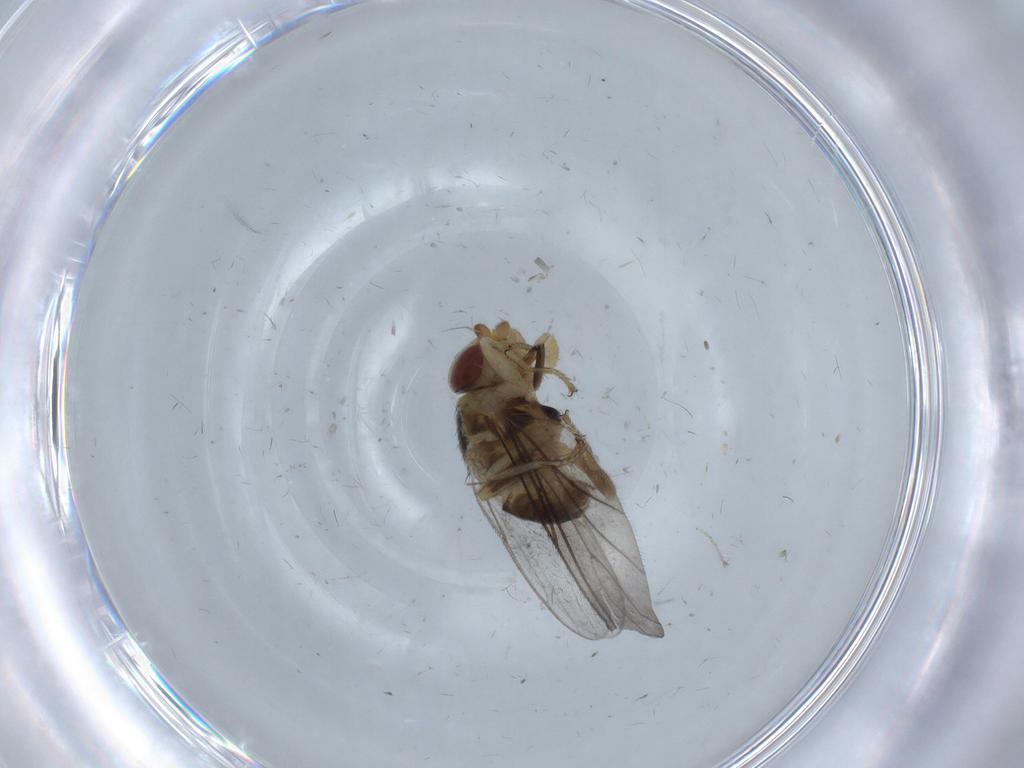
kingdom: Animalia
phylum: Arthropoda
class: Insecta
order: Diptera
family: Chloropidae
